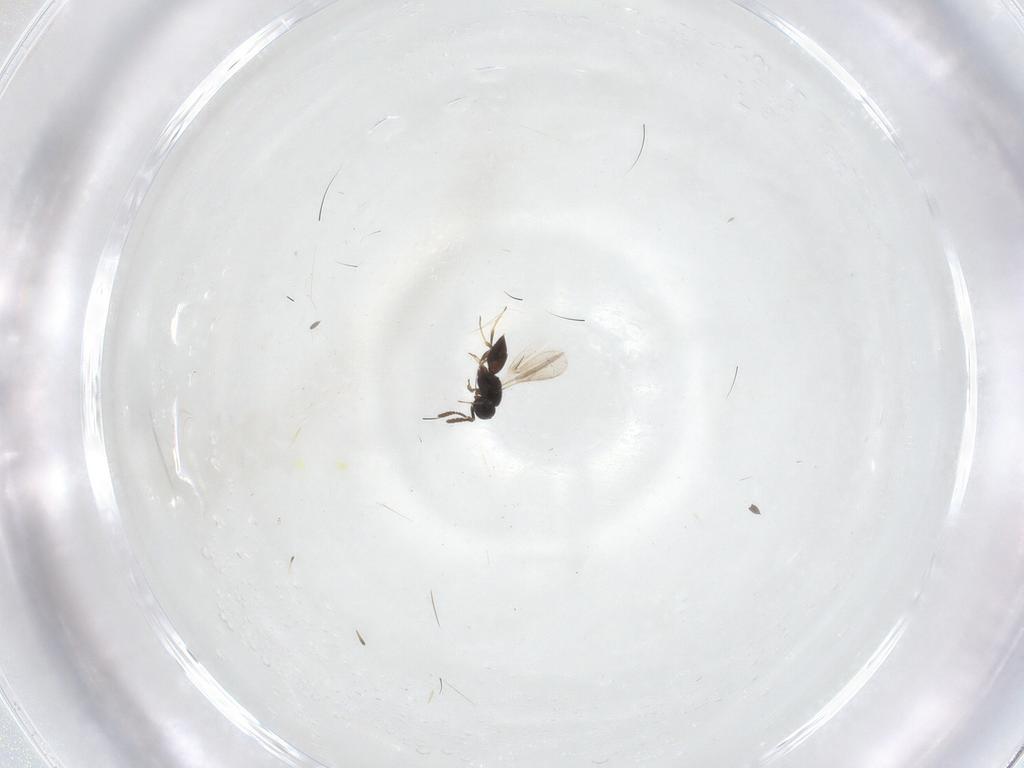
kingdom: Animalia
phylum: Arthropoda
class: Insecta
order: Hymenoptera
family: Scelionidae
